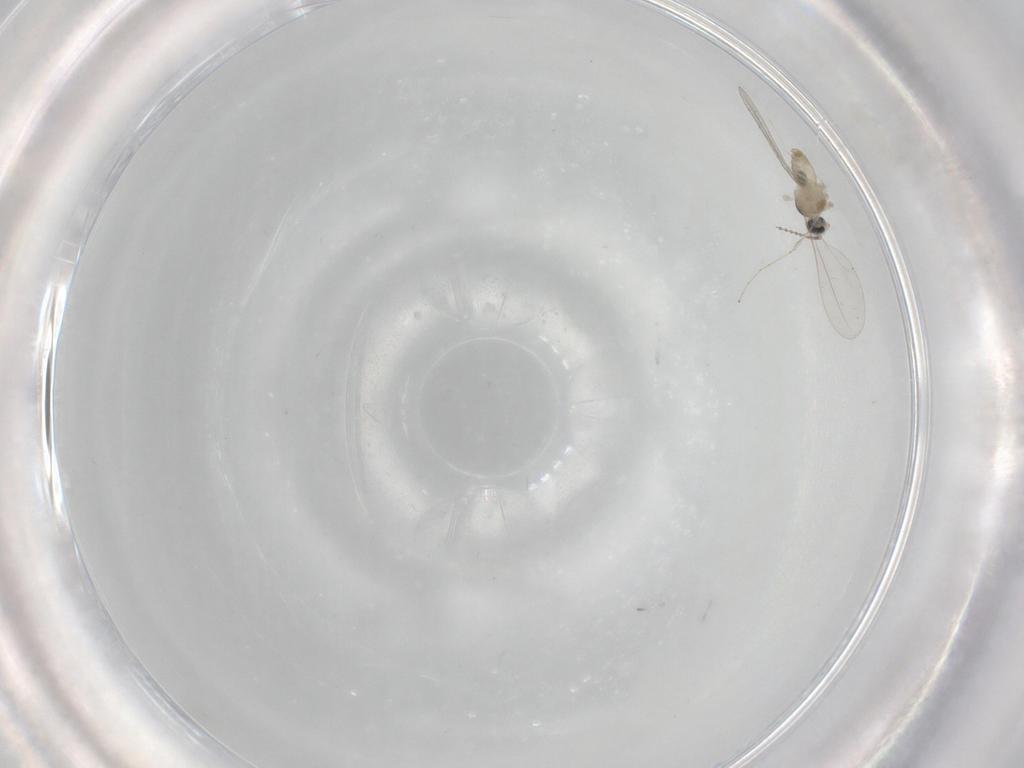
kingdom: Animalia
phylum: Arthropoda
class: Insecta
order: Diptera
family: Cecidomyiidae
